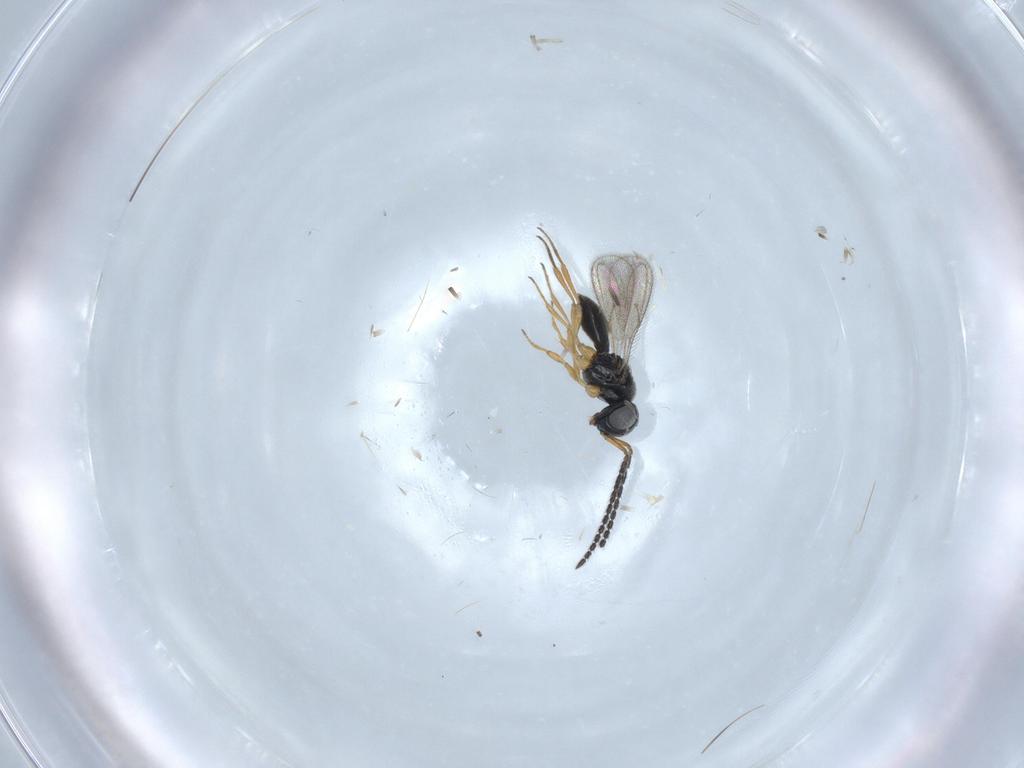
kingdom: Animalia
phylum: Arthropoda
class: Insecta
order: Hymenoptera
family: Scelionidae
